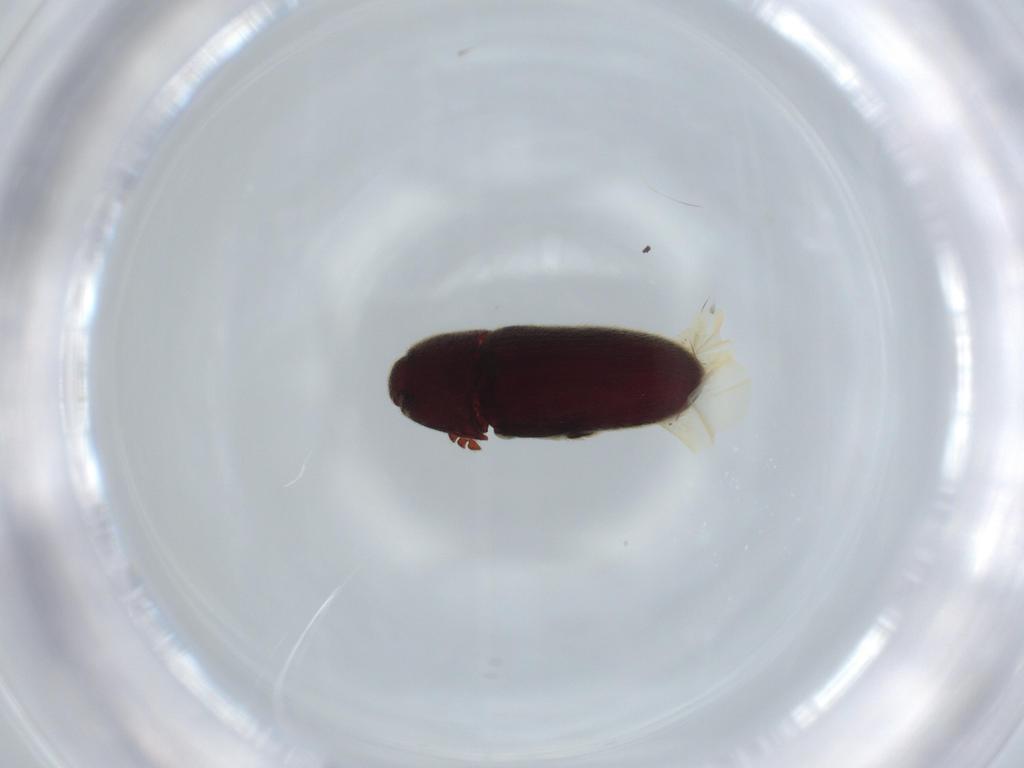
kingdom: Animalia
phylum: Arthropoda
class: Insecta
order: Coleoptera
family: Throscidae
